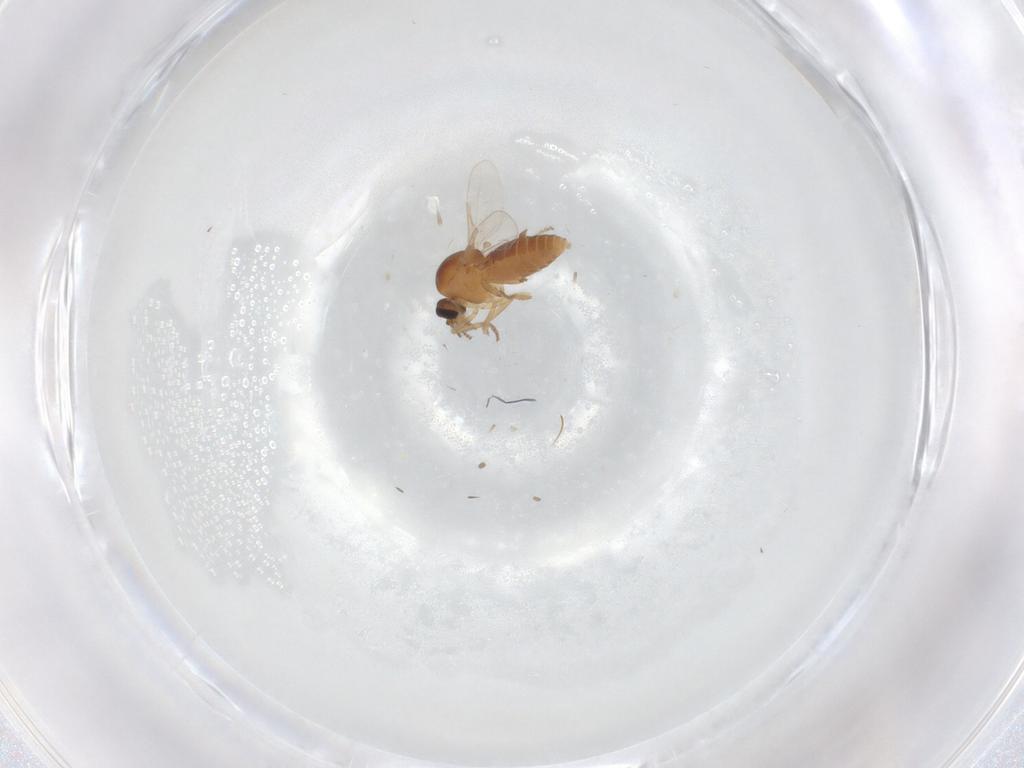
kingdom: Animalia
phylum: Arthropoda
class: Insecta
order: Diptera
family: Ceratopogonidae
